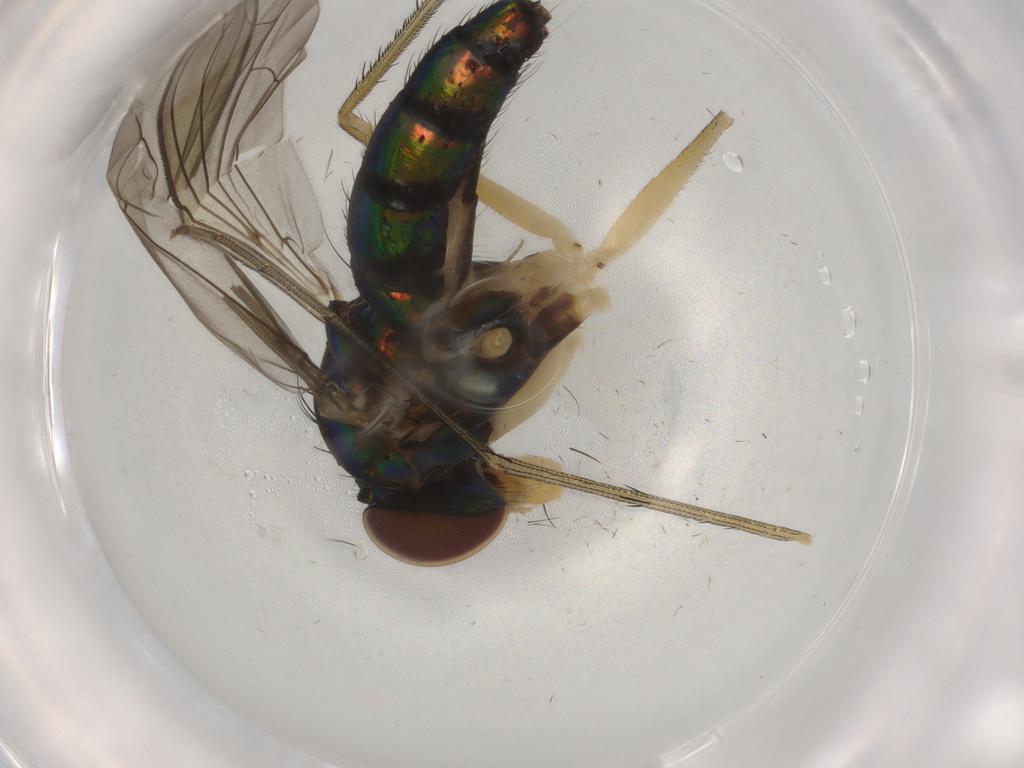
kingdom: Animalia
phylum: Arthropoda
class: Insecta
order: Diptera
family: Dolichopodidae
